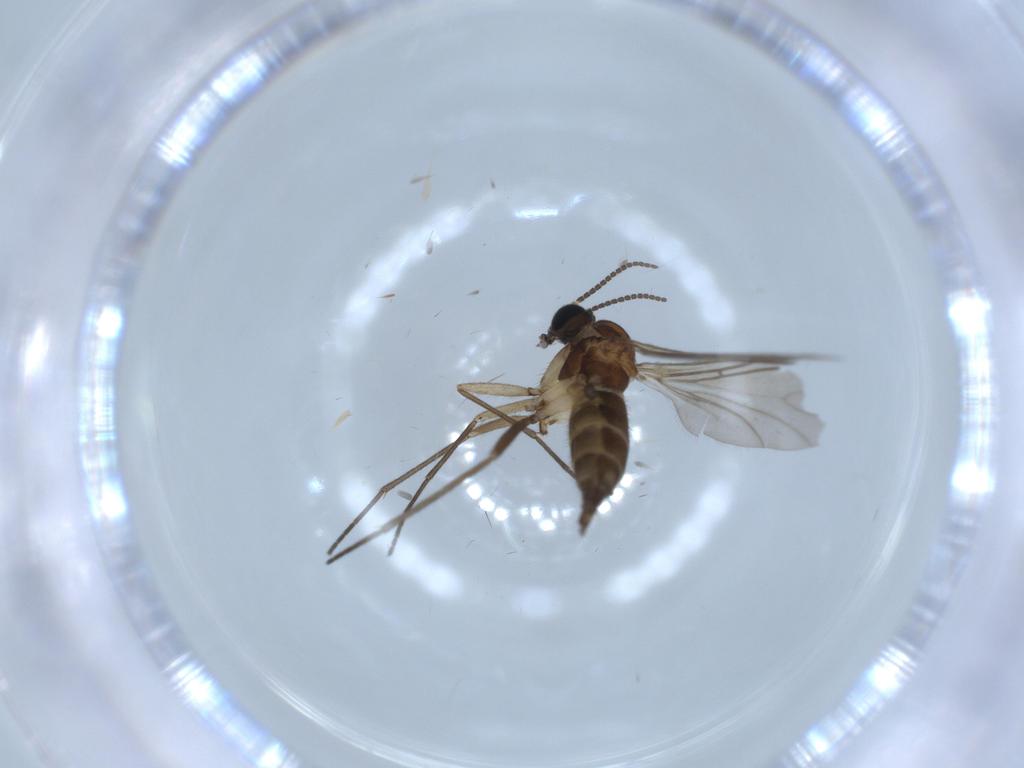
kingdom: Animalia
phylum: Arthropoda
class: Insecta
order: Diptera
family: Sciaridae
